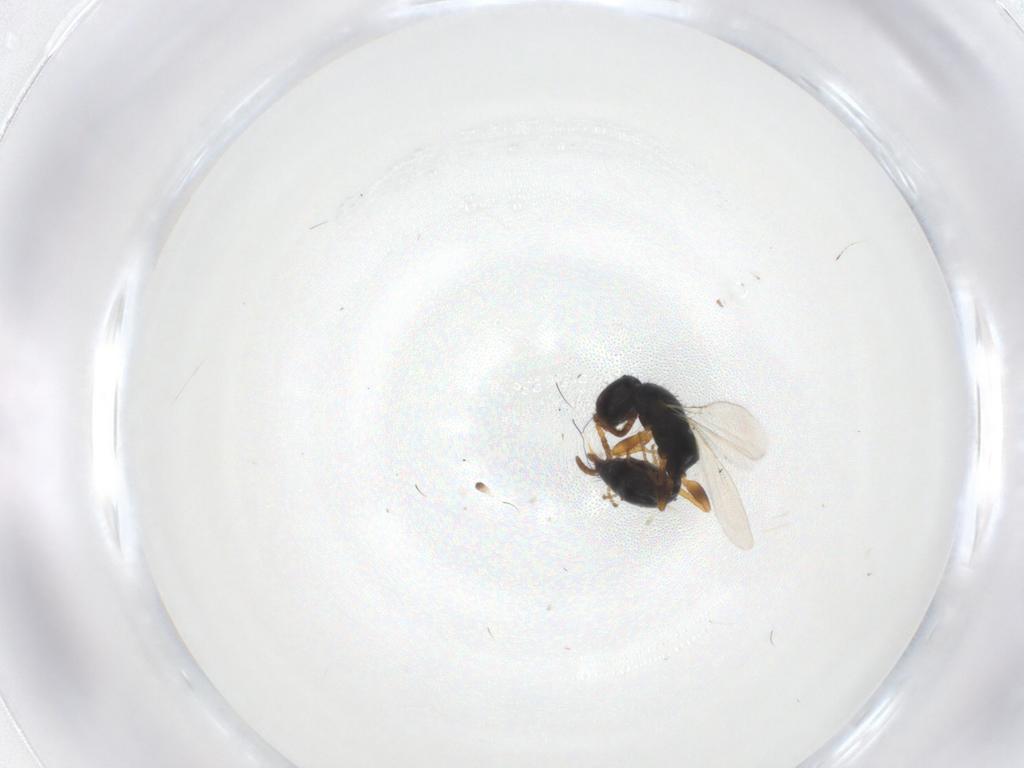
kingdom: Animalia
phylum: Arthropoda
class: Insecta
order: Hymenoptera
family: Bethylidae
